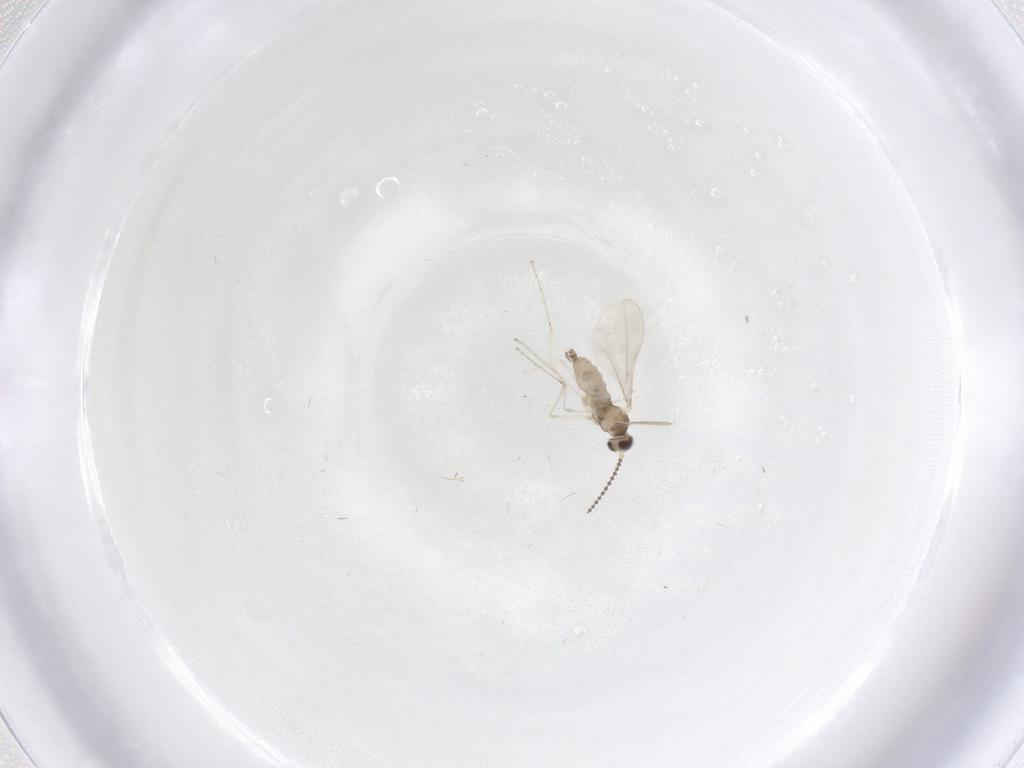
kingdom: Animalia
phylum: Arthropoda
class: Insecta
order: Diptera
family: Cecidomyiidae
